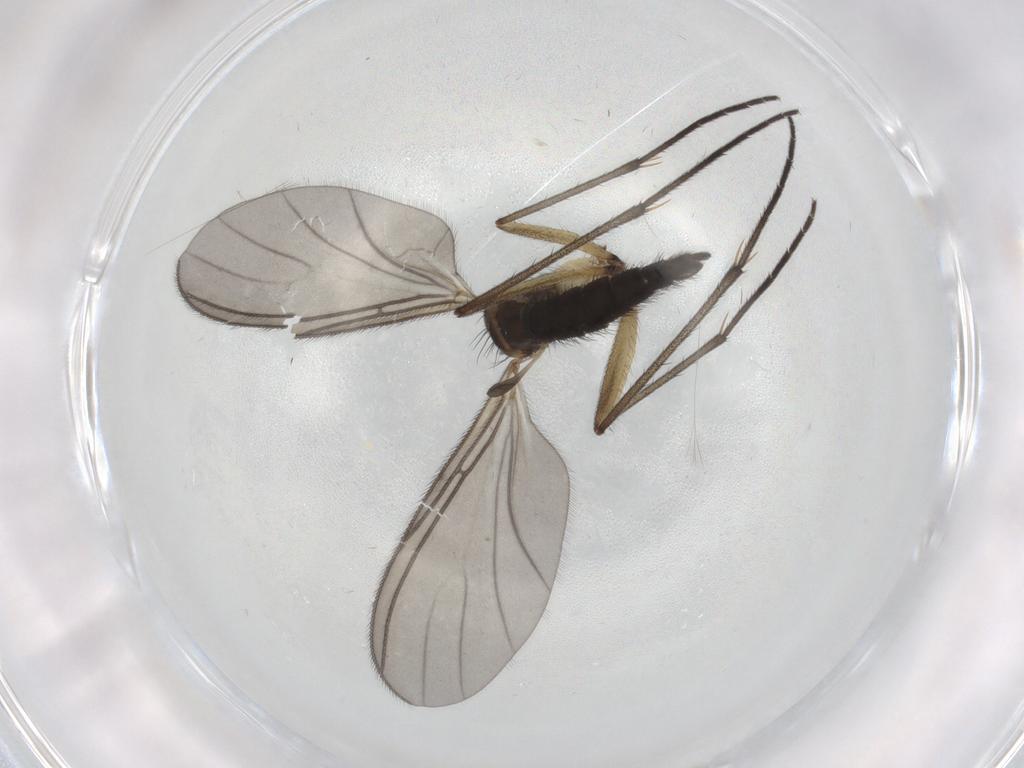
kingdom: Animalia
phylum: Arthropoda
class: Insecta
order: Diptera
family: Sciaridae
